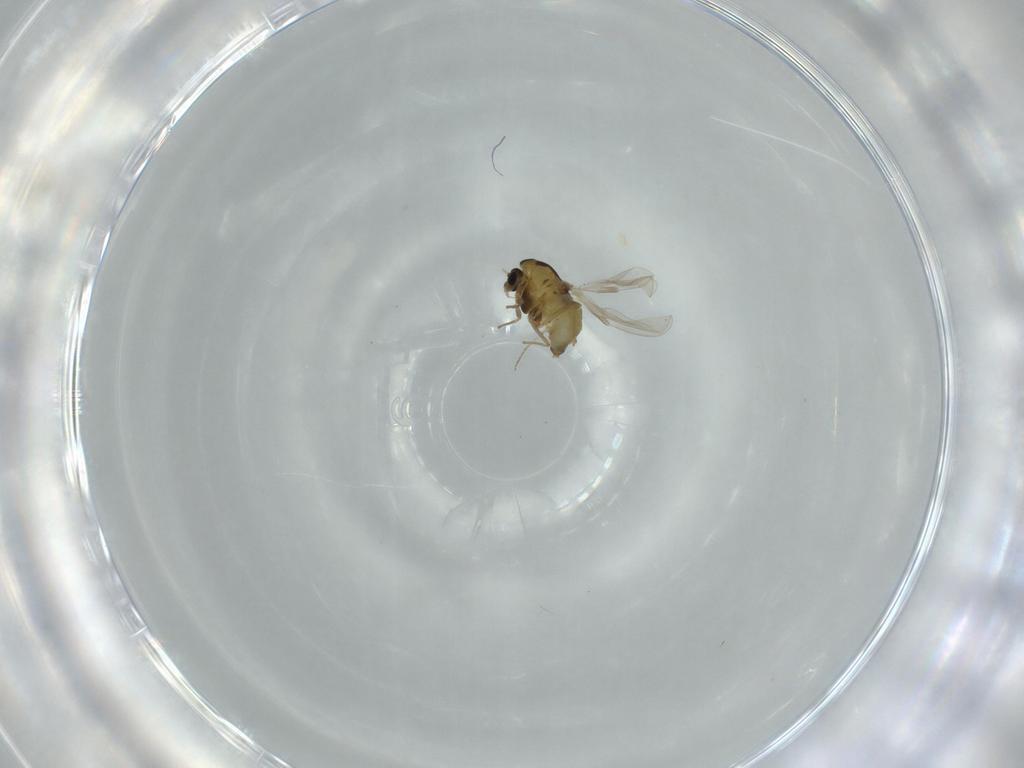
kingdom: Animalia
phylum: Arthropoda
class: Insecta
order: Diptera
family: Chironomidae
